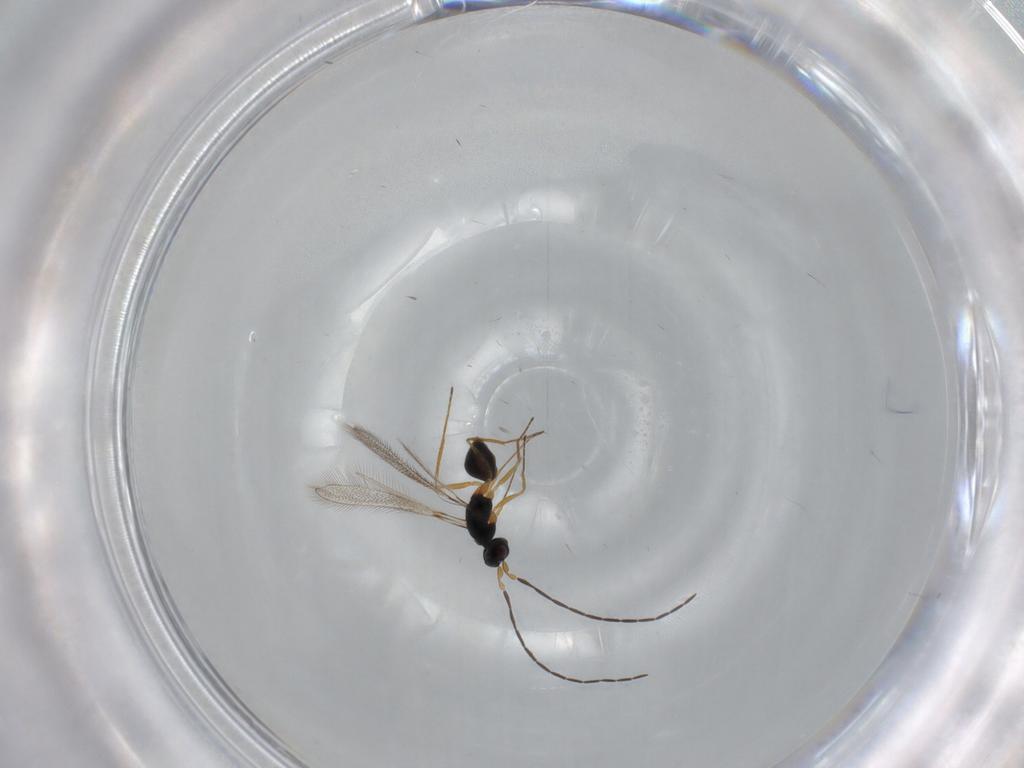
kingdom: Animalia
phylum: Arthropoda
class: Insecta
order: Hymenoptera
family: Mymaridae
